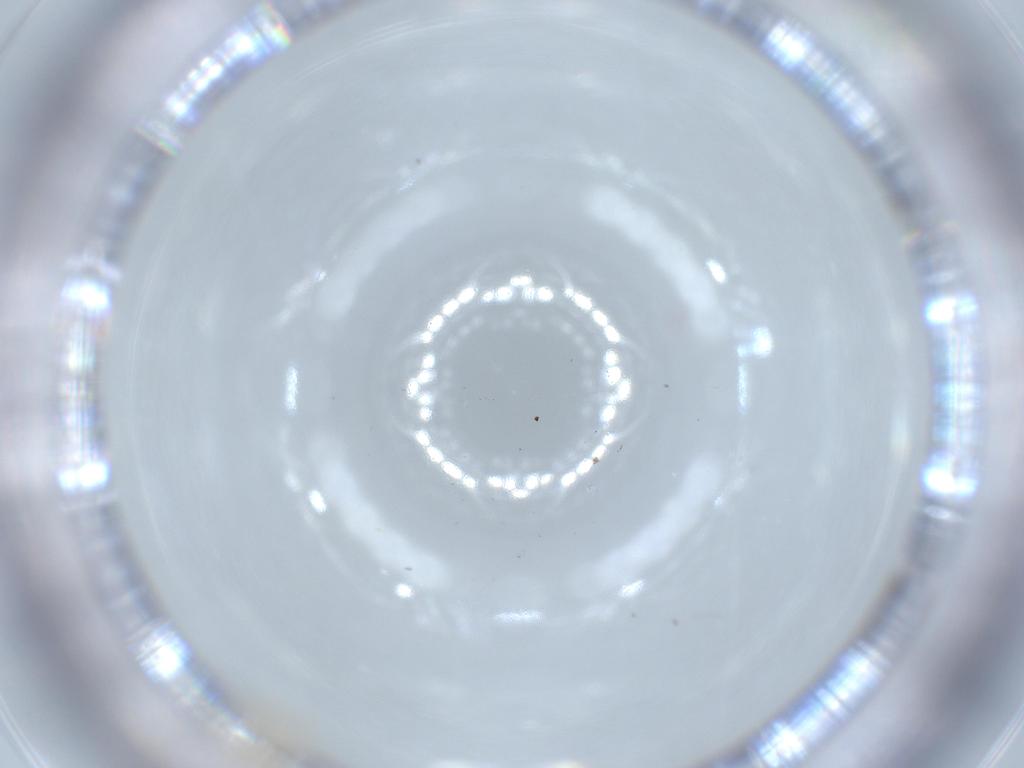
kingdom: Animalia
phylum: Arthropoda
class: Insecta
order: Diptera
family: Cecidomyiidae
